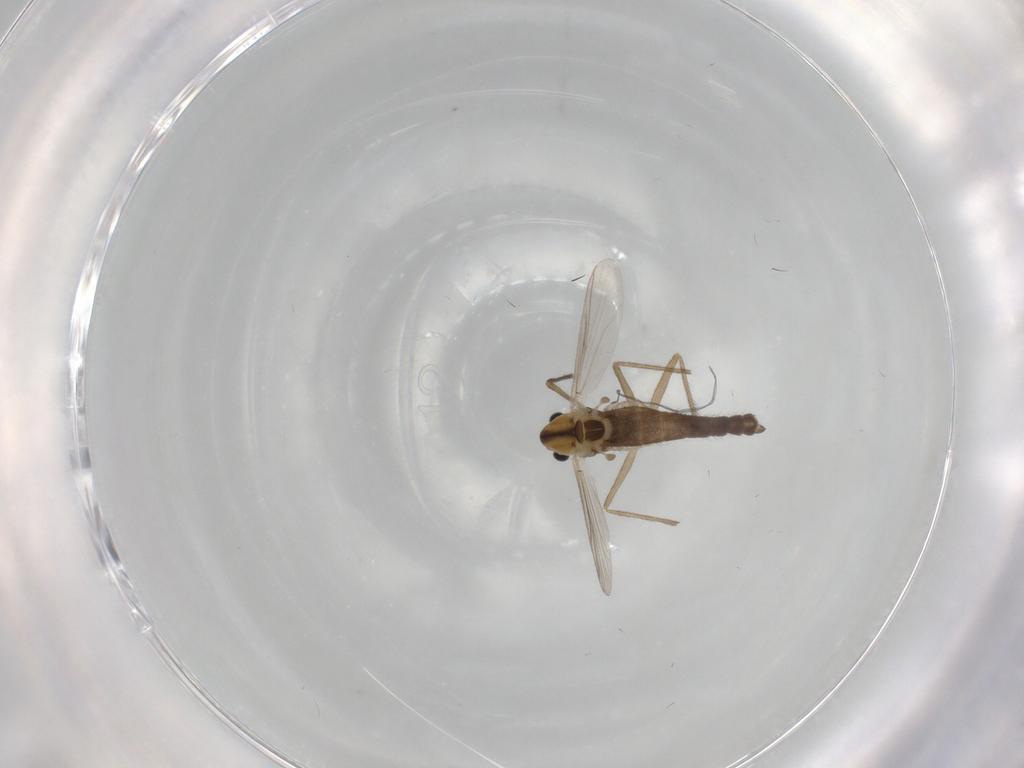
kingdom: Animalia
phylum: Arthropoda
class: Insecta
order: Diptera
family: Chironomidae
